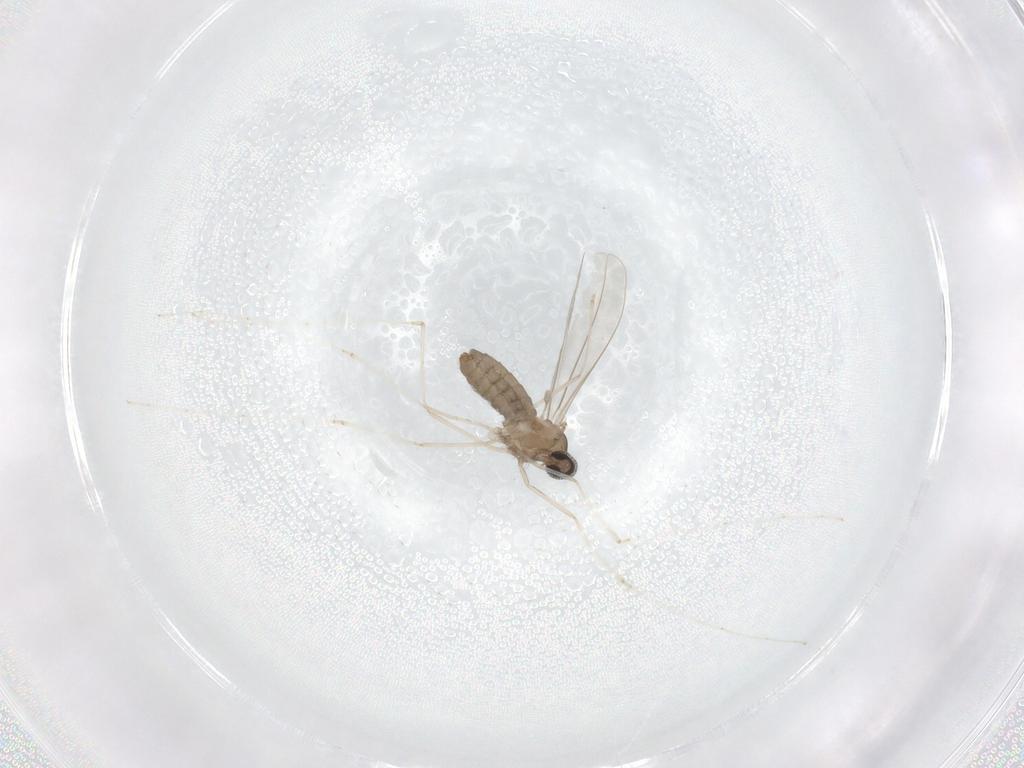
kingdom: Animalia
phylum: Arthropoda
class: Insecta
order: Diptera
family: Cecidomyiidae
